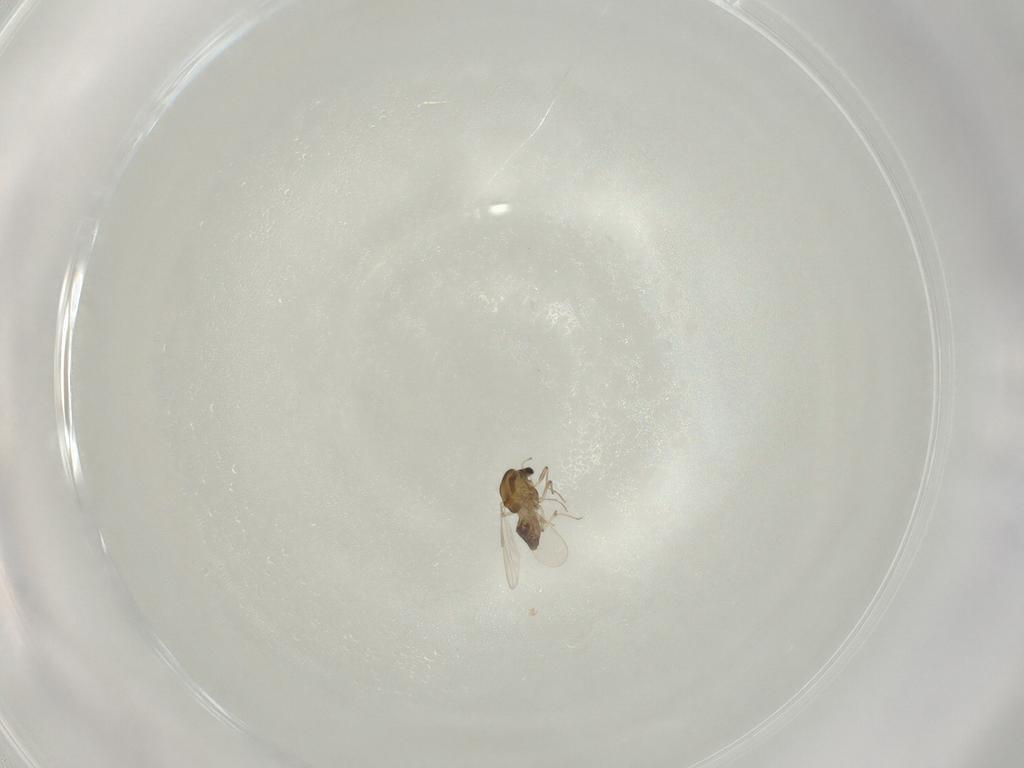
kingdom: Animalia
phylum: Arthropoda
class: Insecta
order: Diptera
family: Chironomidae
